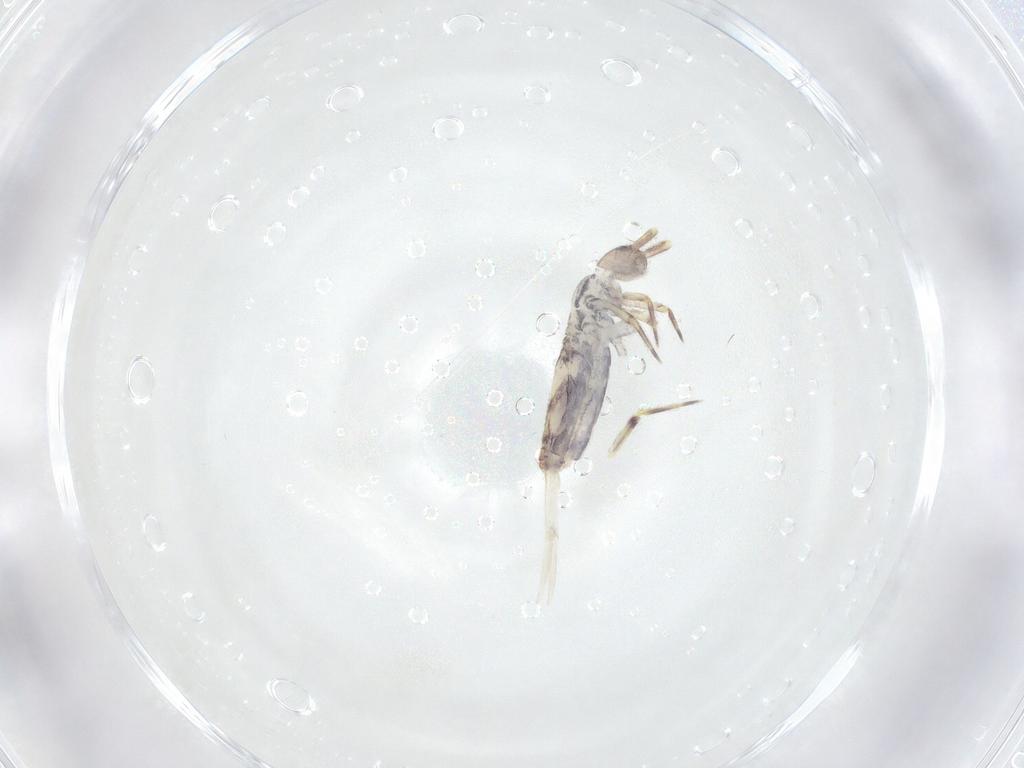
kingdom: Animalia
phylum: Arthropoda
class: Collembola
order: Entomobryomorpha
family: Entomobryidae
